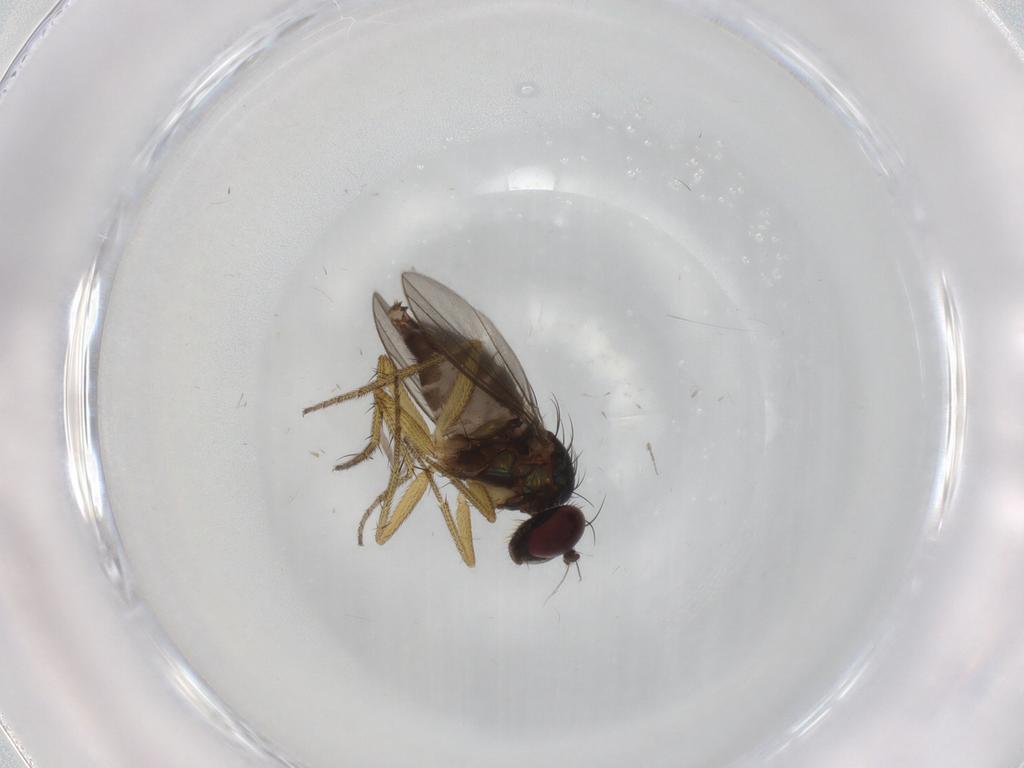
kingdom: Animalia
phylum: Arthropoda
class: Insecta
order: Diptera
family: Dolichopodidae
